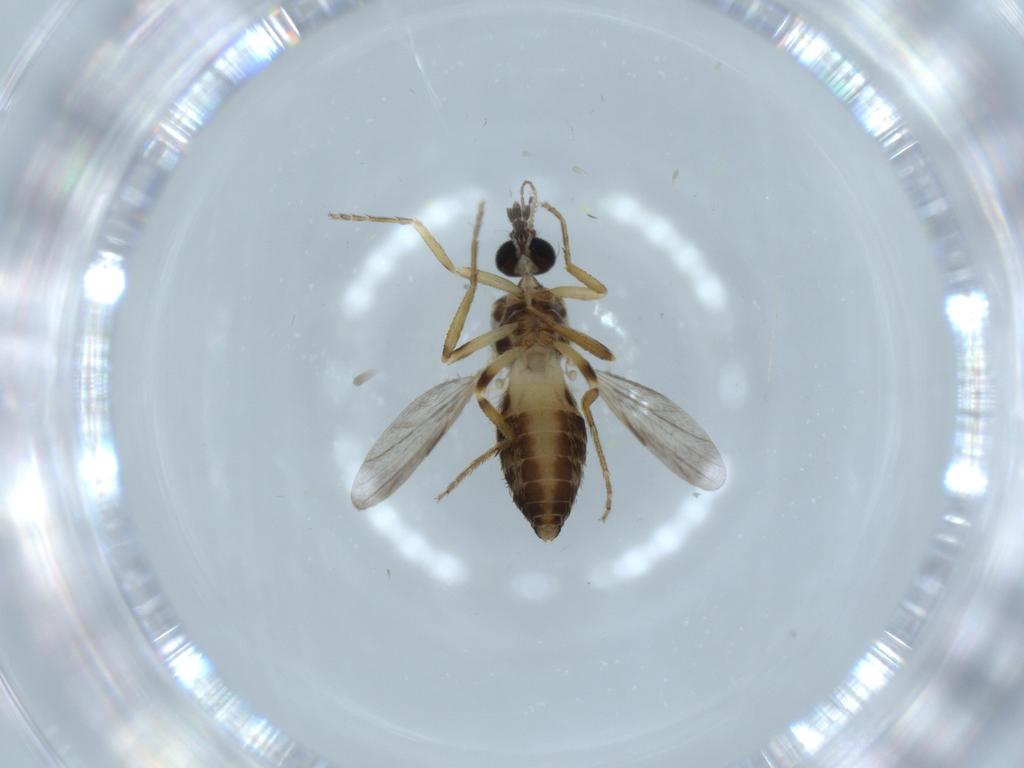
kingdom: Animalia
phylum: Arthropoda
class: Insecta
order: Diptera
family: Ceratopogonidae
